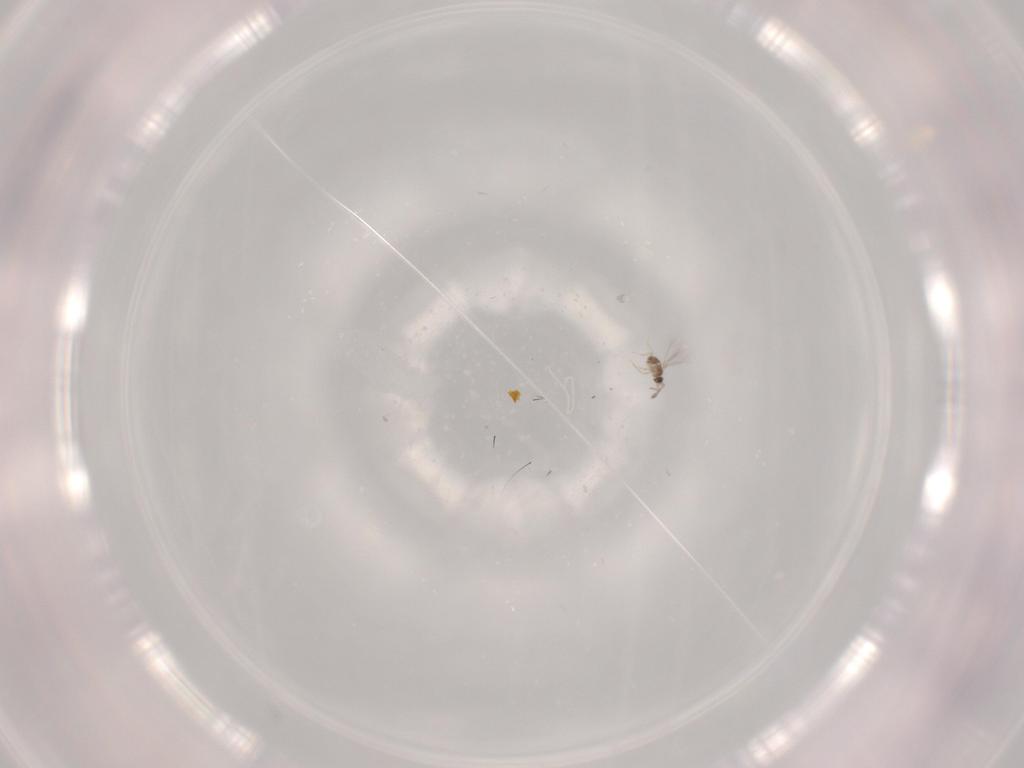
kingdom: Animalia
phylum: Arthropoda
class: Insecta
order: Hymenoptera
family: Mymaridae
